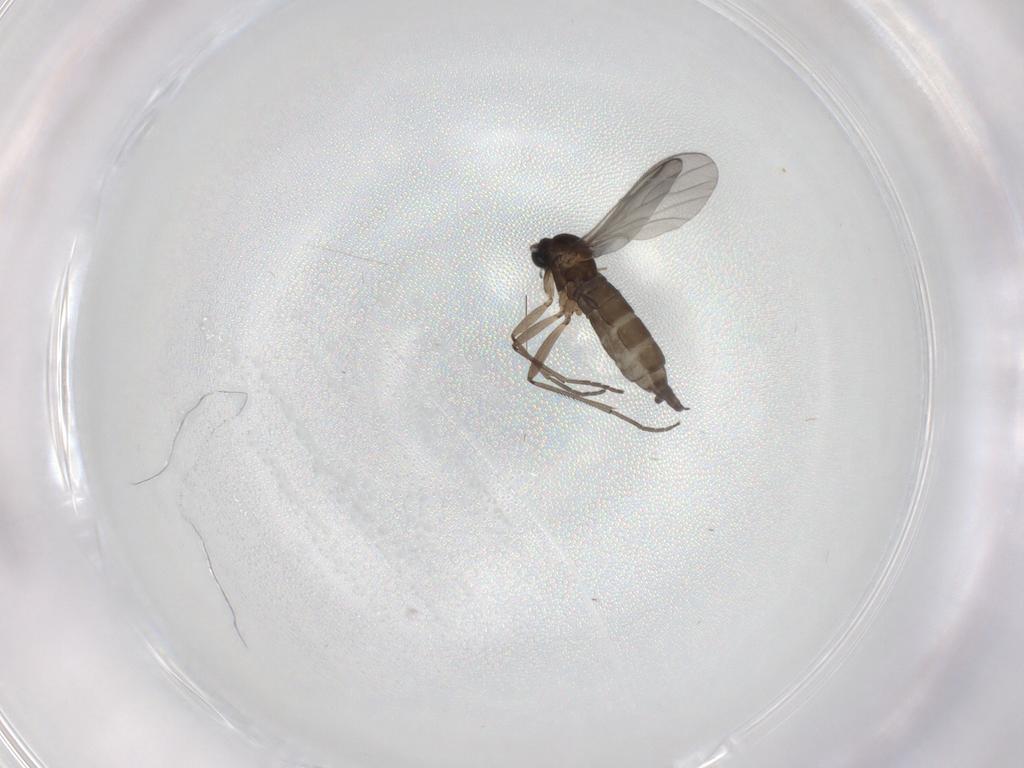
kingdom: Animalia
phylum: Arthropoda
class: Insecta
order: Diptera
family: Sciaridae
